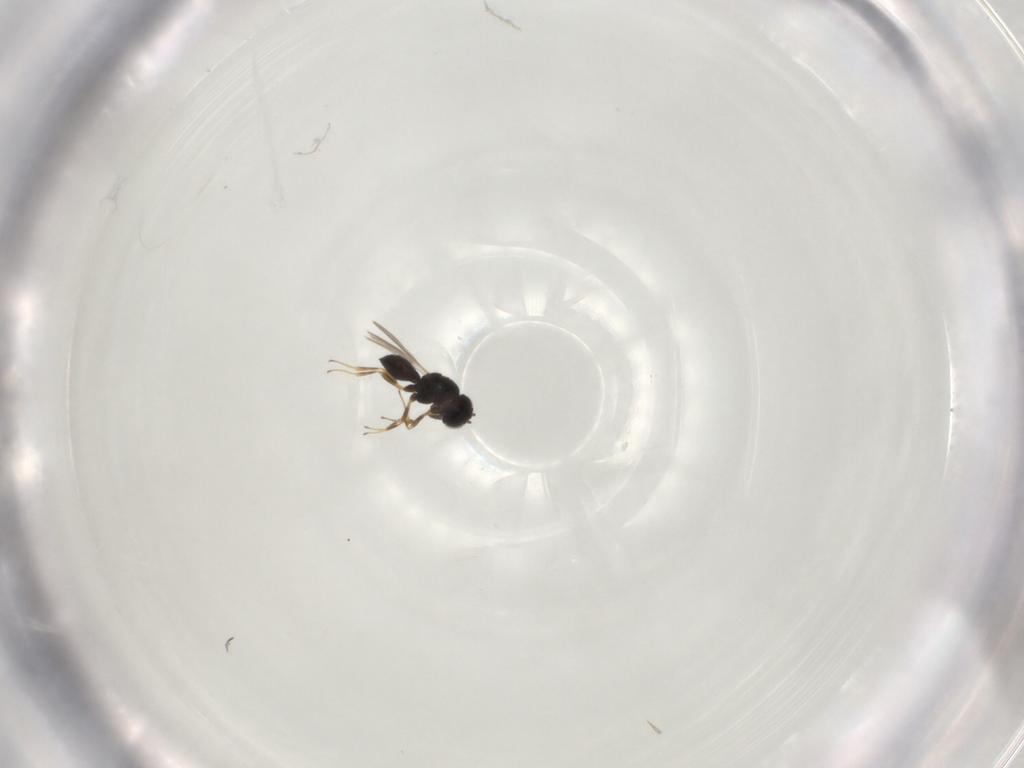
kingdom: Animalia
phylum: Arthropoda
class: Insecta
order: Hymenoptera
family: Scelionidae
